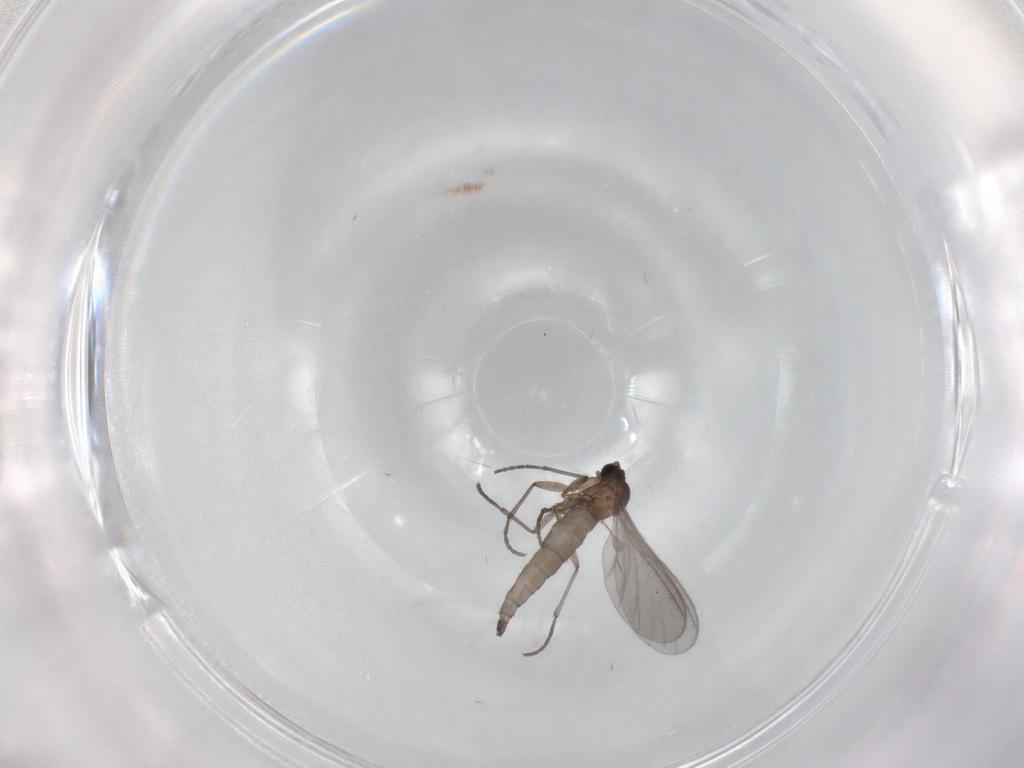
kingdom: Animalia
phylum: Arthropoda
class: Insecta
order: Diptera
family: Sciaridae
